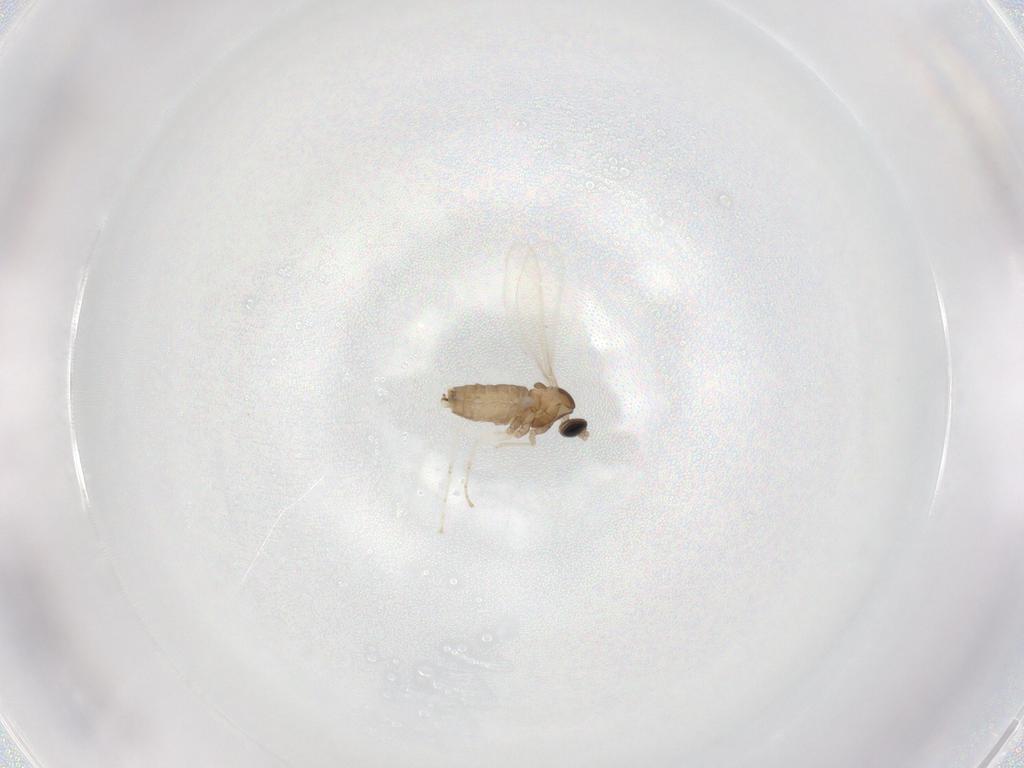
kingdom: Animalia
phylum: Arthropoda
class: Insecta
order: Diptera
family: Cecidomyiidae
